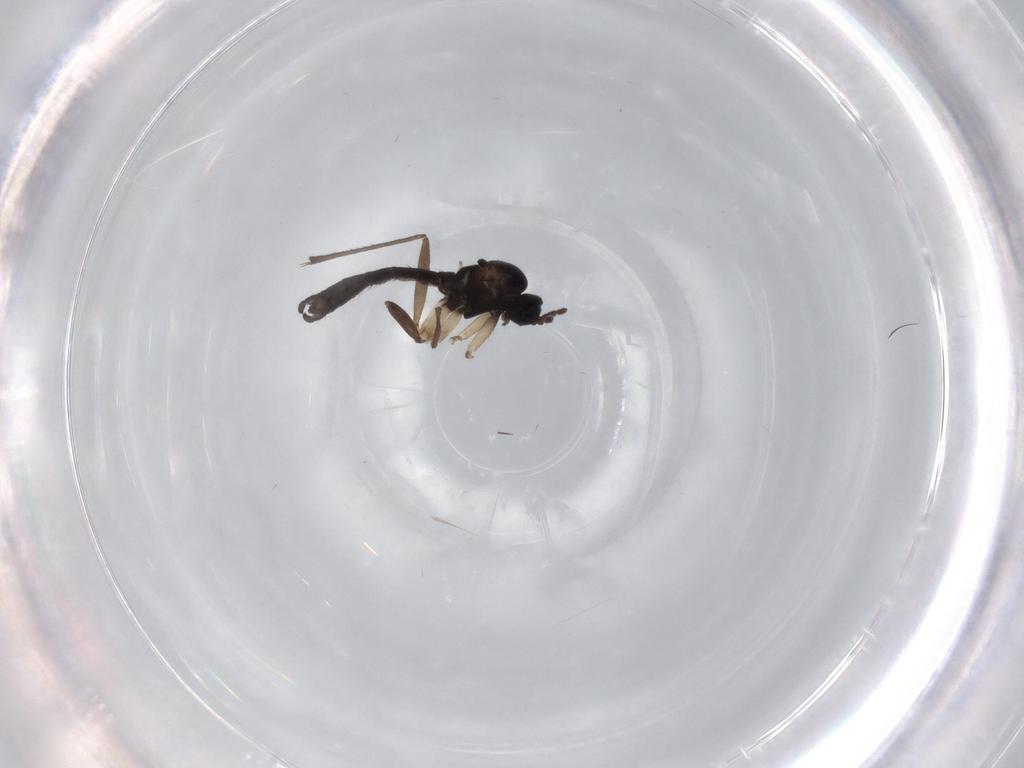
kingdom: Animalia
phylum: Arthropoda
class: Insecta
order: Diptera
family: Sciaridae
